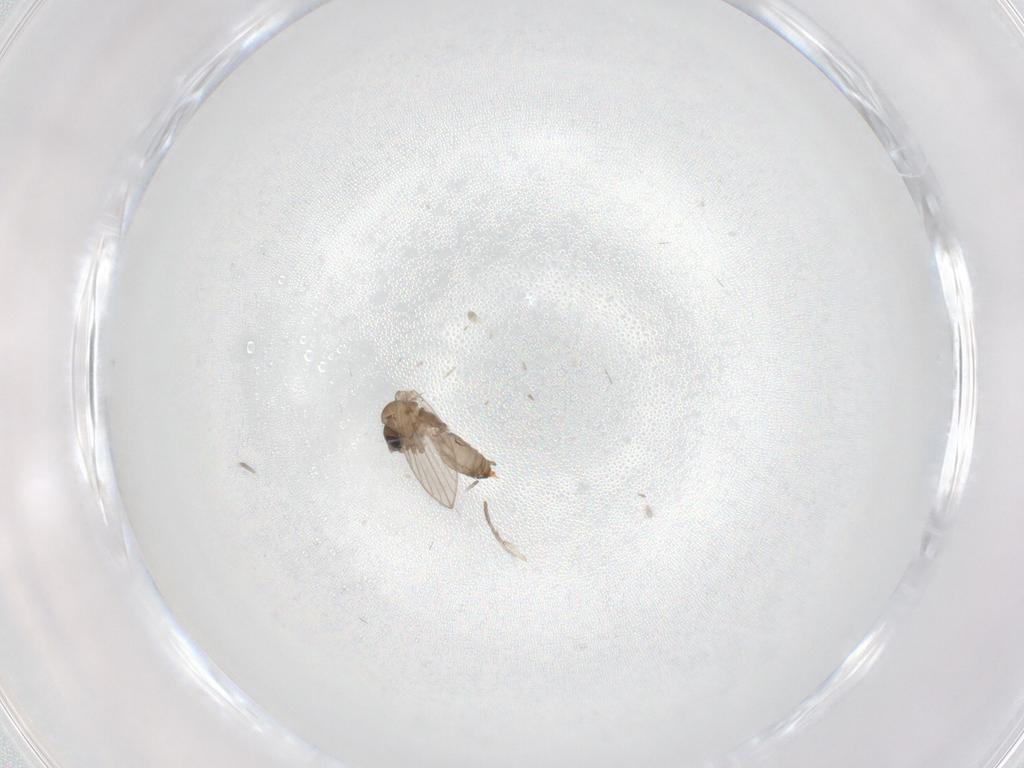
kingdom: Animalia
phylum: Arthropoda
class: Insecta
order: Diptera
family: Psychodidae
